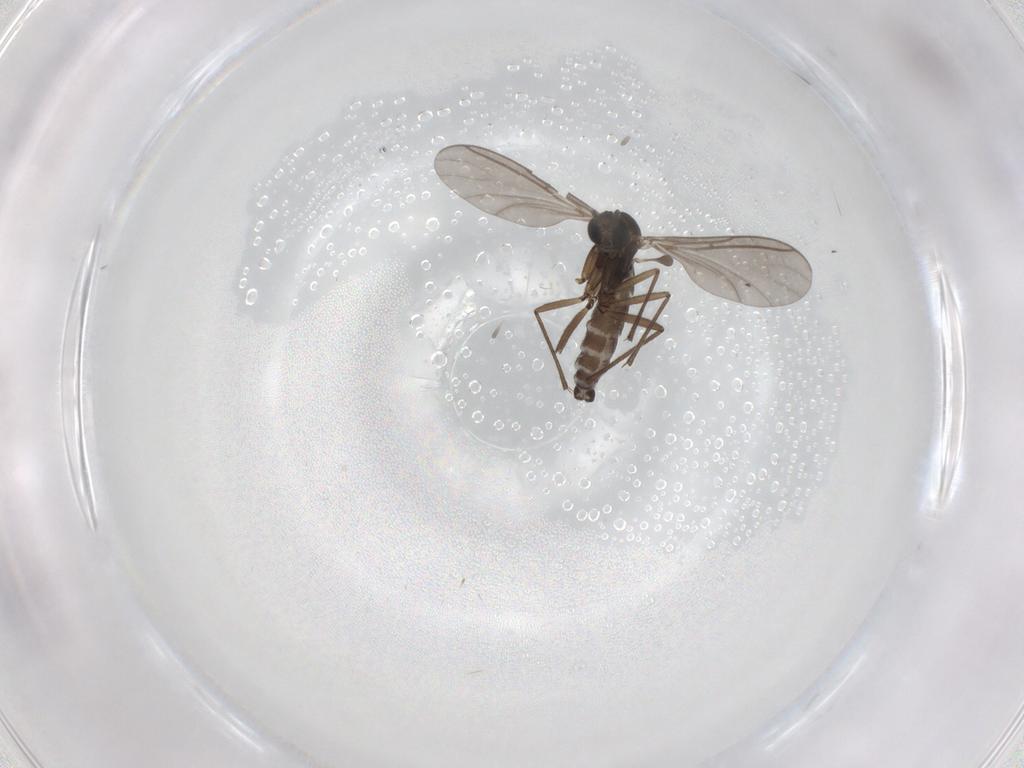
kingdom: Animalia
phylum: Arthropoda
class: Insecta
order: Diptera
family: Sciaridae
